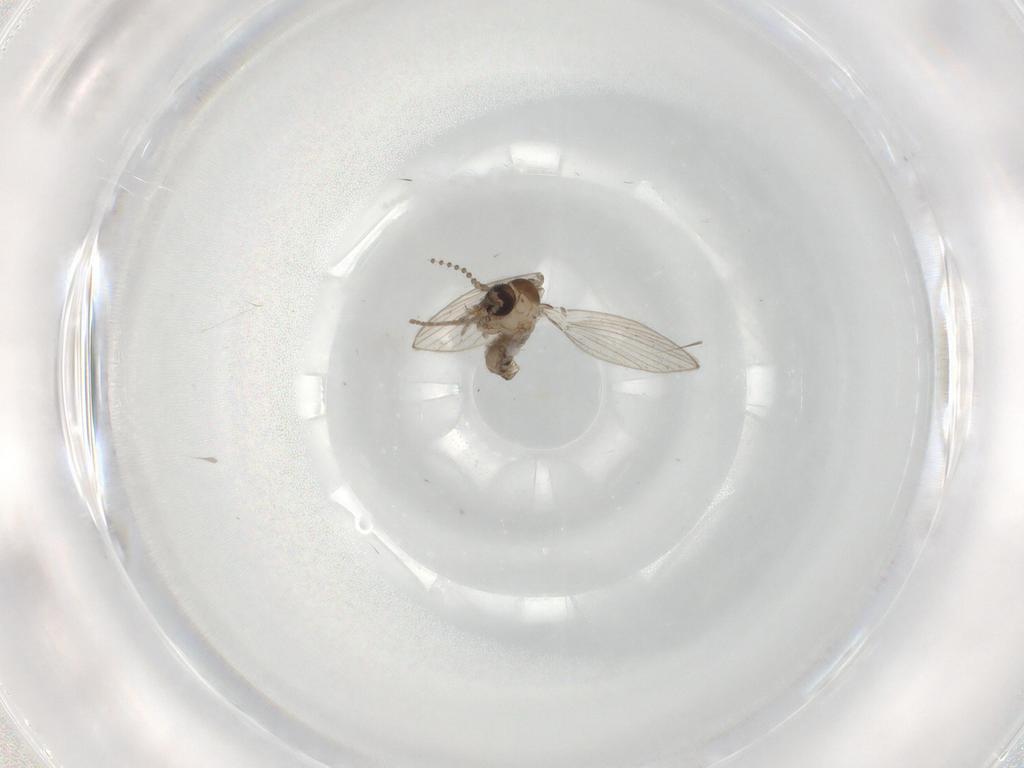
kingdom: Animalia
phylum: Arthropoda
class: Insecta
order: Diptera
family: Psychodidae
